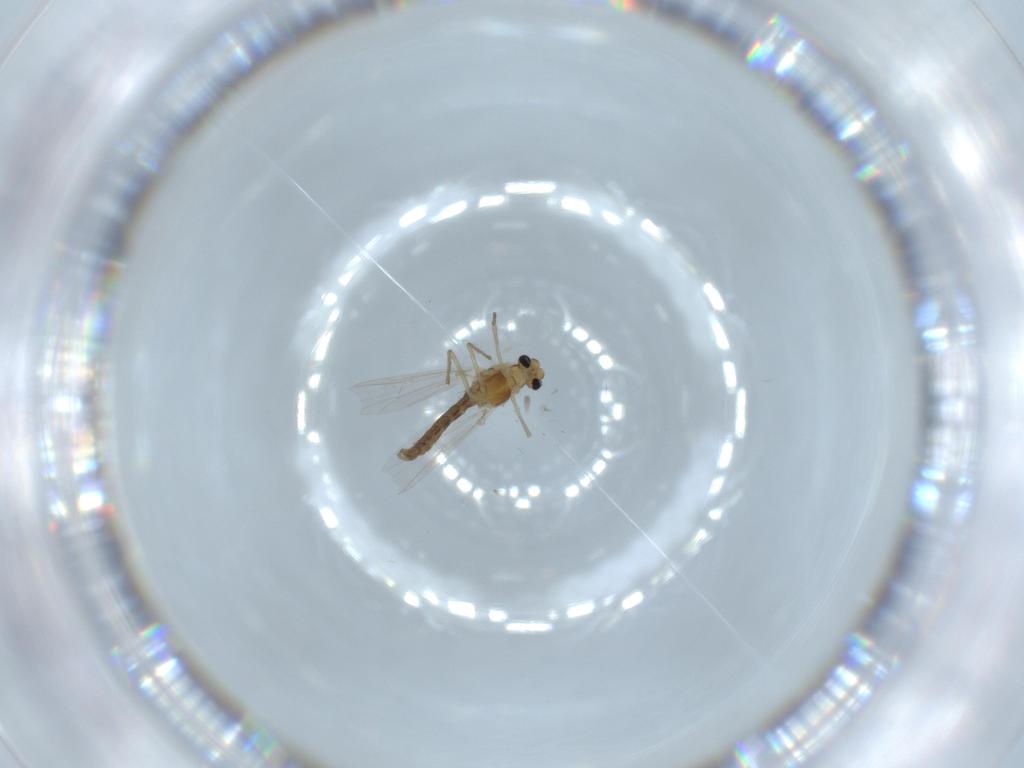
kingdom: Animalia
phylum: Arthropoda
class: Insecta
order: Diptera
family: Chironomidae
